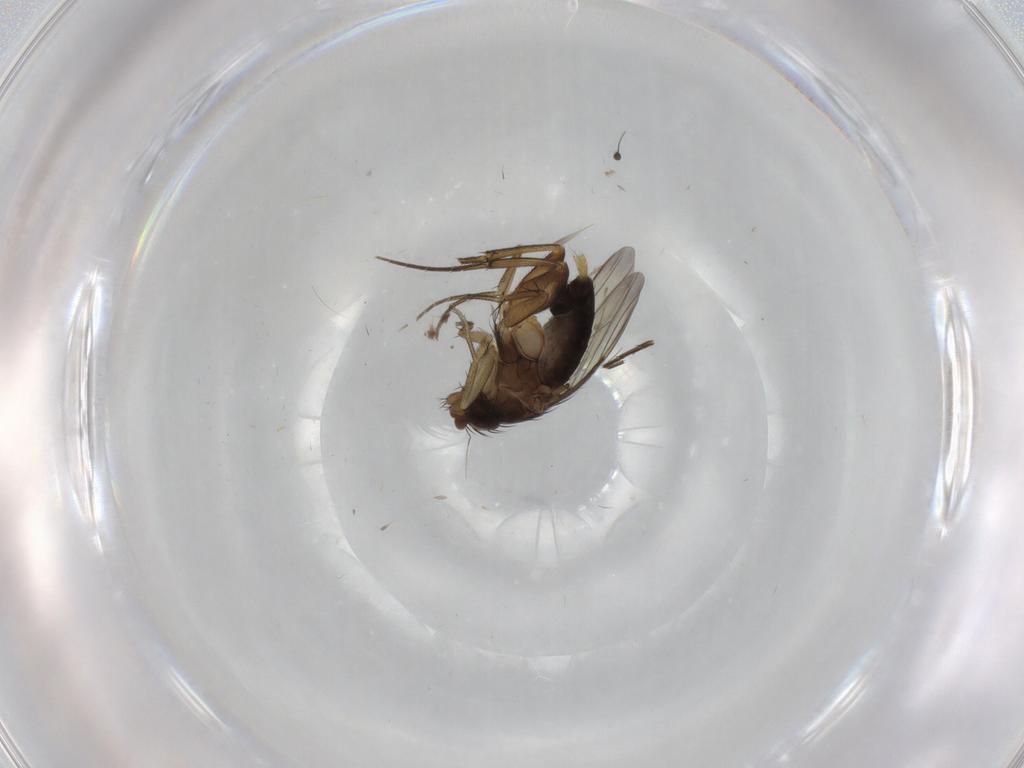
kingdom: Animalia
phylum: Arthropoda
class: Insecta
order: Diptera
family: Phoridae
